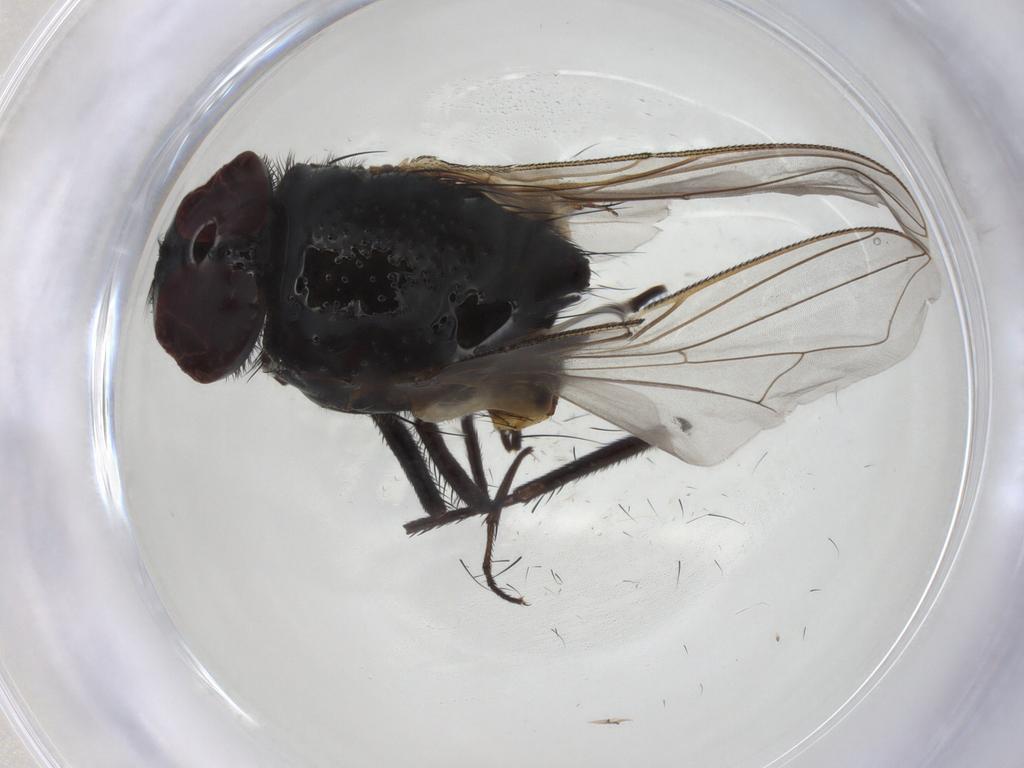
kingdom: Animalia
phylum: Arthropoda
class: Insecta
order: Diptera
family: Muscidae
